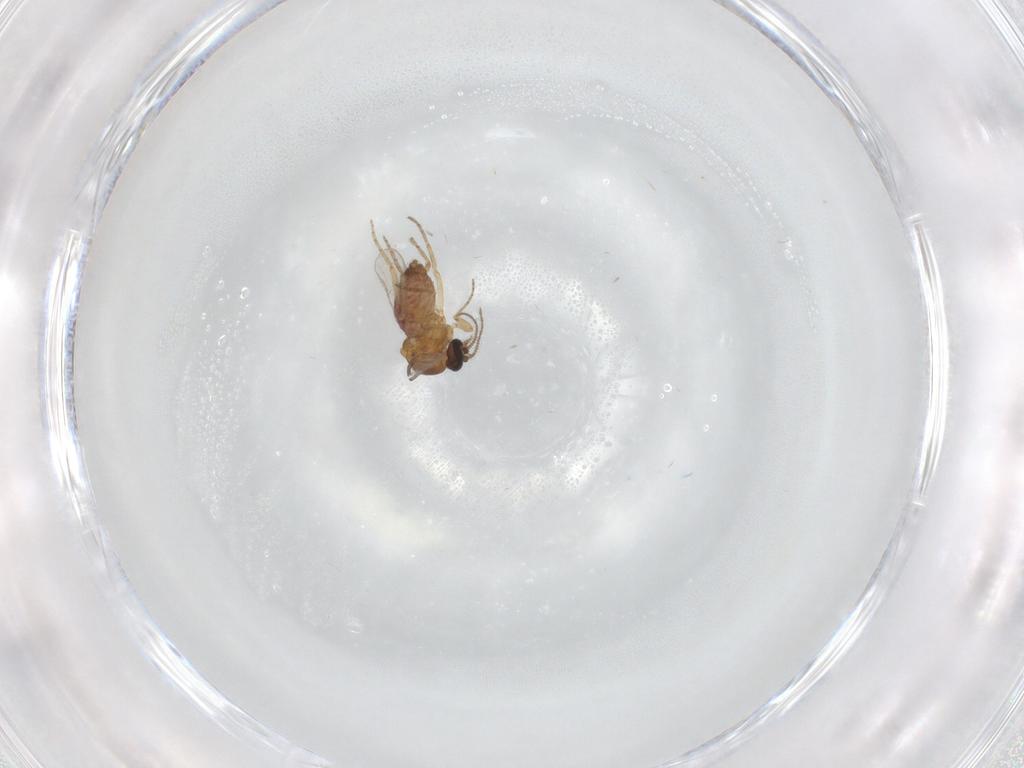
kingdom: Animalia
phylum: Arthropoda
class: Insecta
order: Diptera
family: Ceratopogonidae
